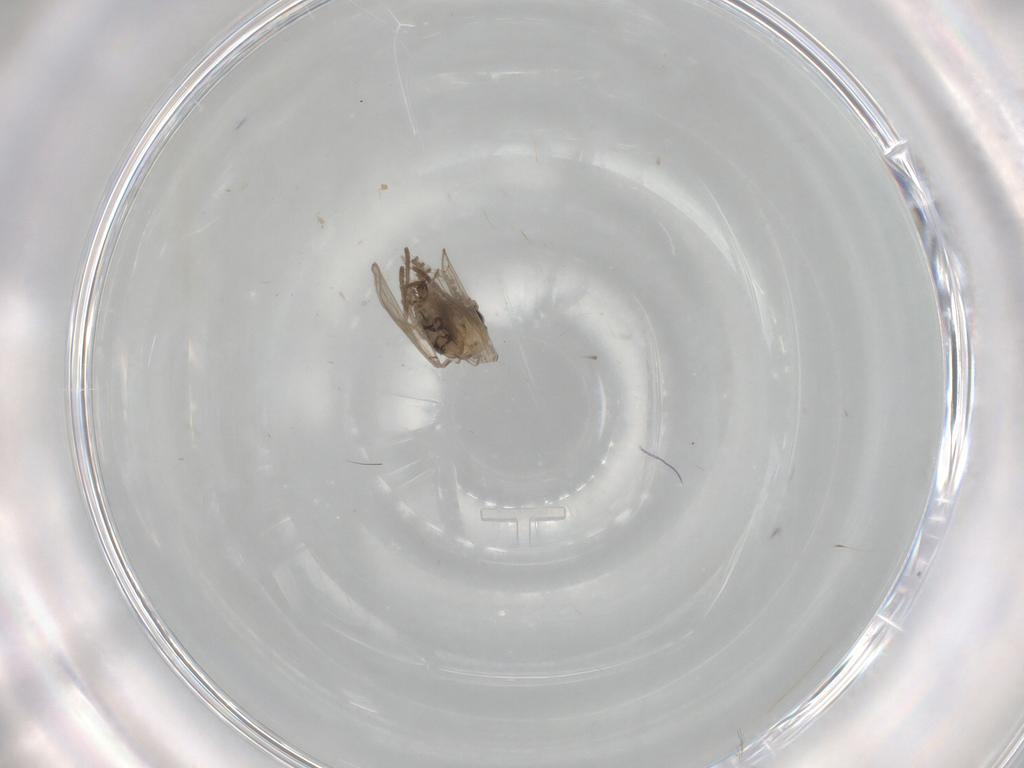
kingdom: Animalia
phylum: Arthropoda
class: Insecta
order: Diptera
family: Psychodidae
